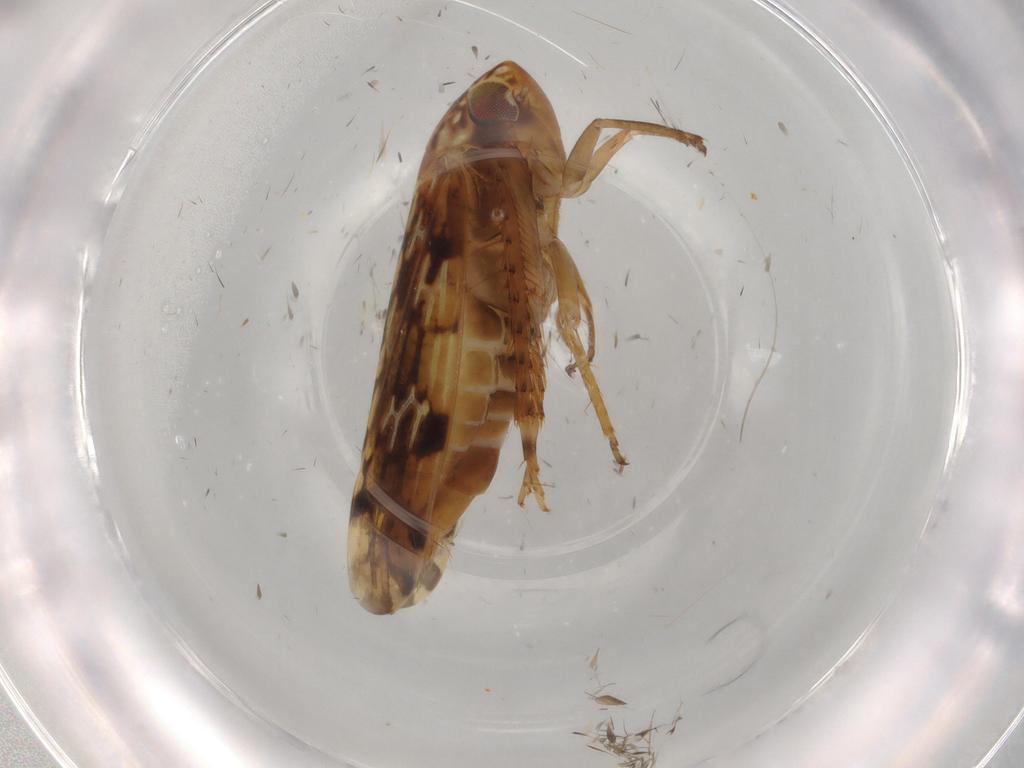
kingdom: Animalia
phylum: Arthropoda
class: Insecta
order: Hemiptera
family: Cicadellidae
